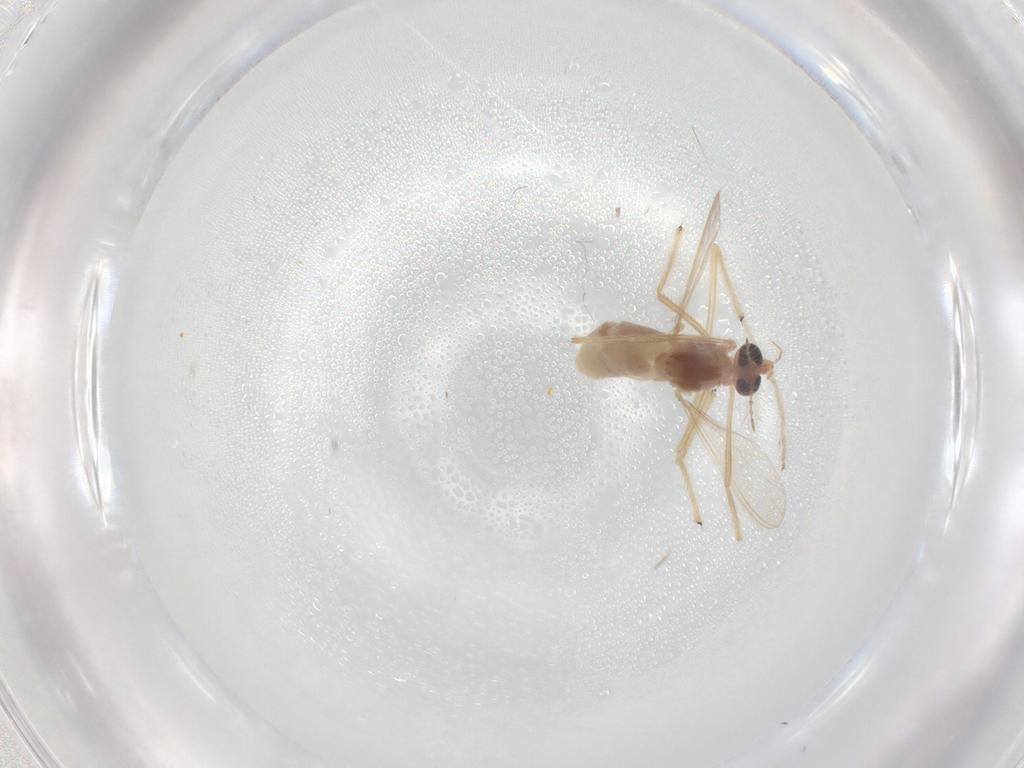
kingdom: Animalia
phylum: Arthropoda
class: Insecta
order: Diptera
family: Chironomidae
